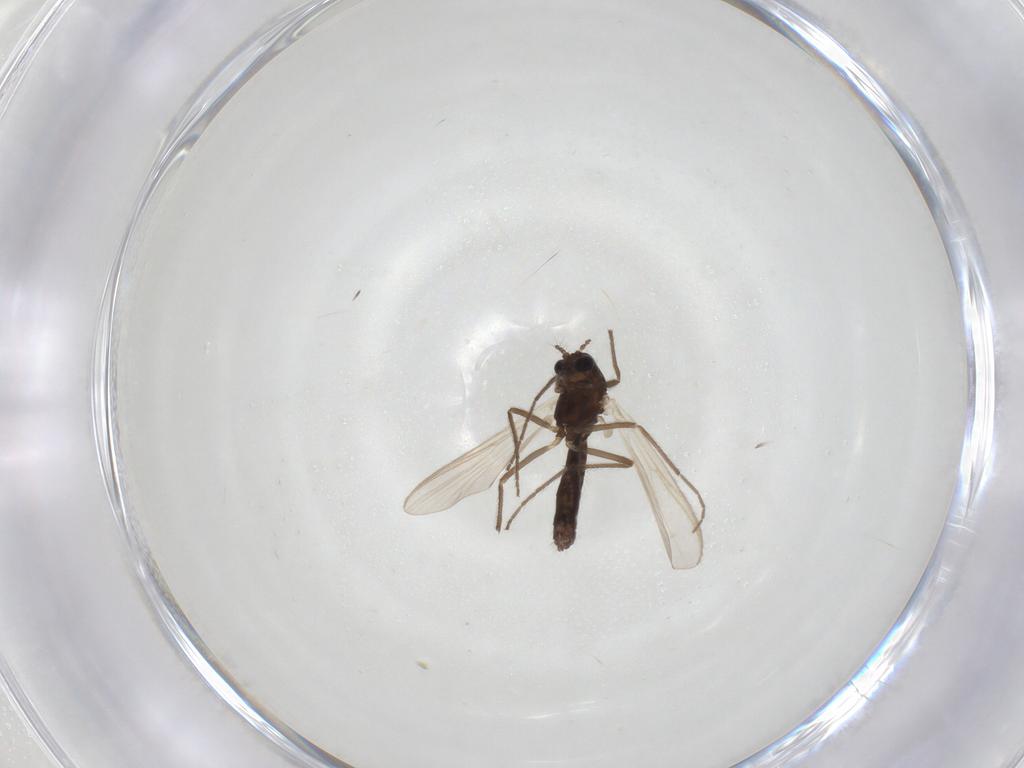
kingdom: Animalia
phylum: Arthropoda
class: Insecta
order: Diptera
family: Chironomidae
